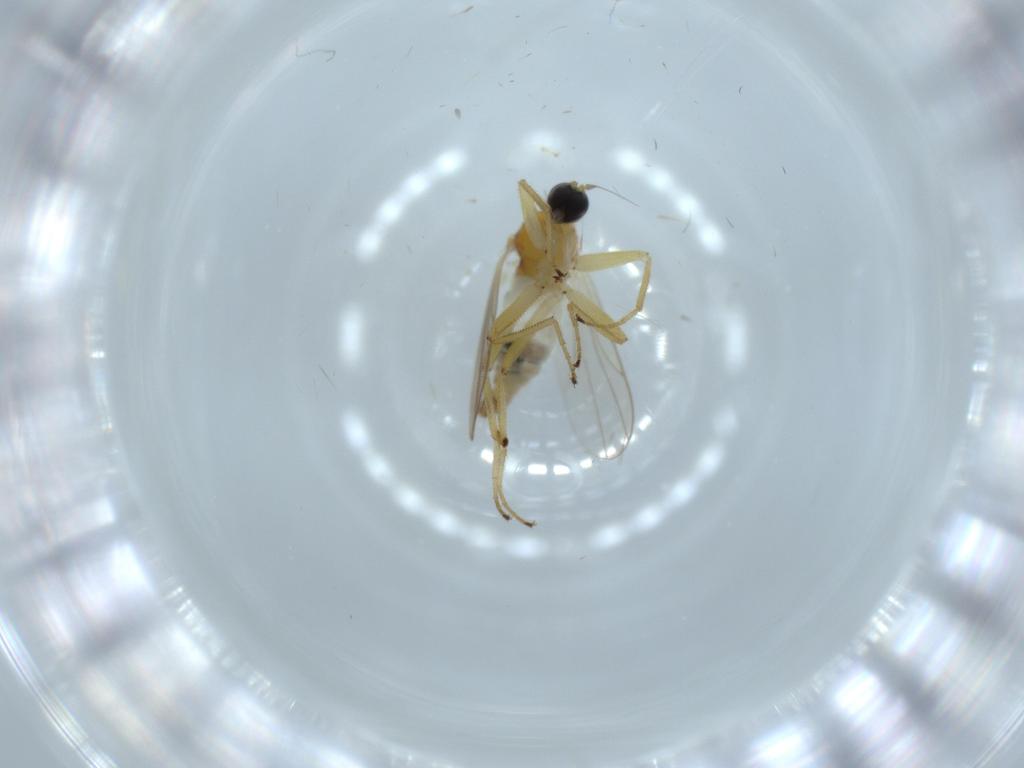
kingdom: Animalia
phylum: Arthropoda
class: Insecta
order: Diptera
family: Hybotidae
